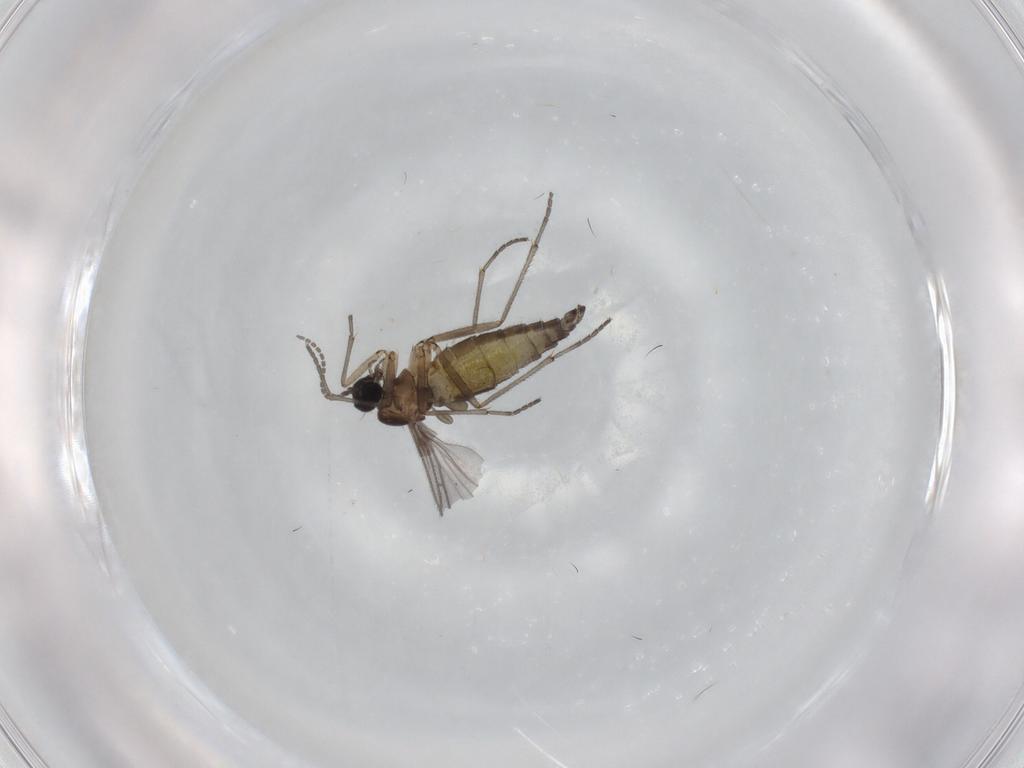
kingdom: Animalia
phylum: Arthropoda
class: Insecta
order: Diptera
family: Sciaridae
